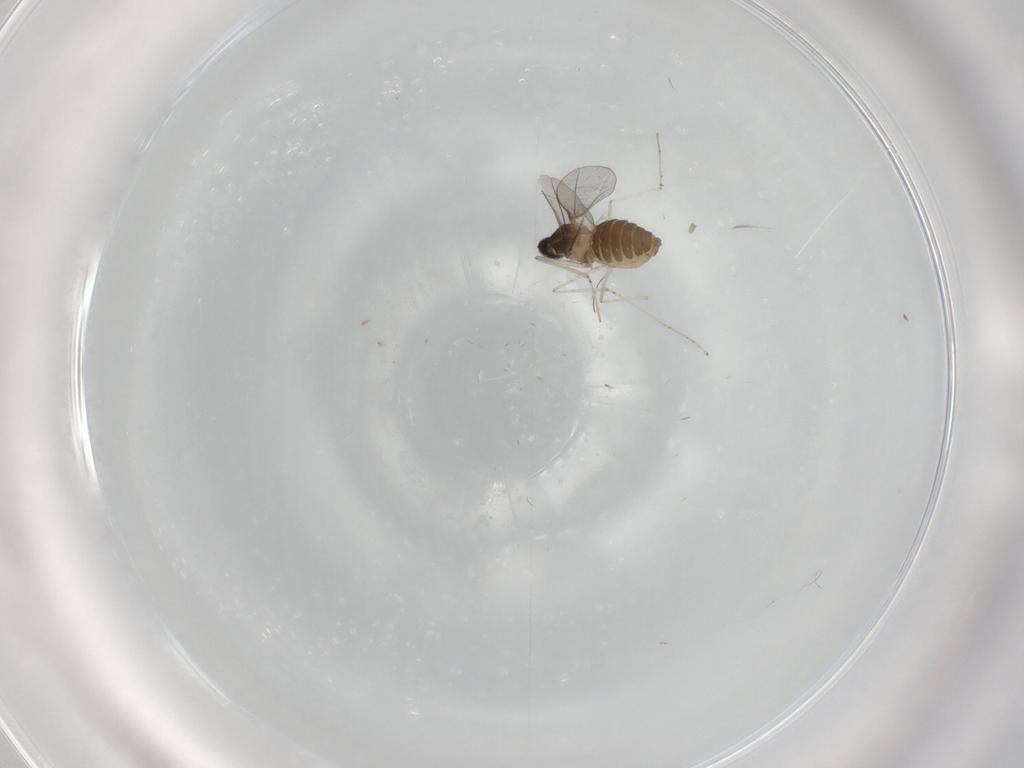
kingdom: Animalia
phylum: Arthropoda
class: Insecta
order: Diptera
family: Cecidomyiidae
